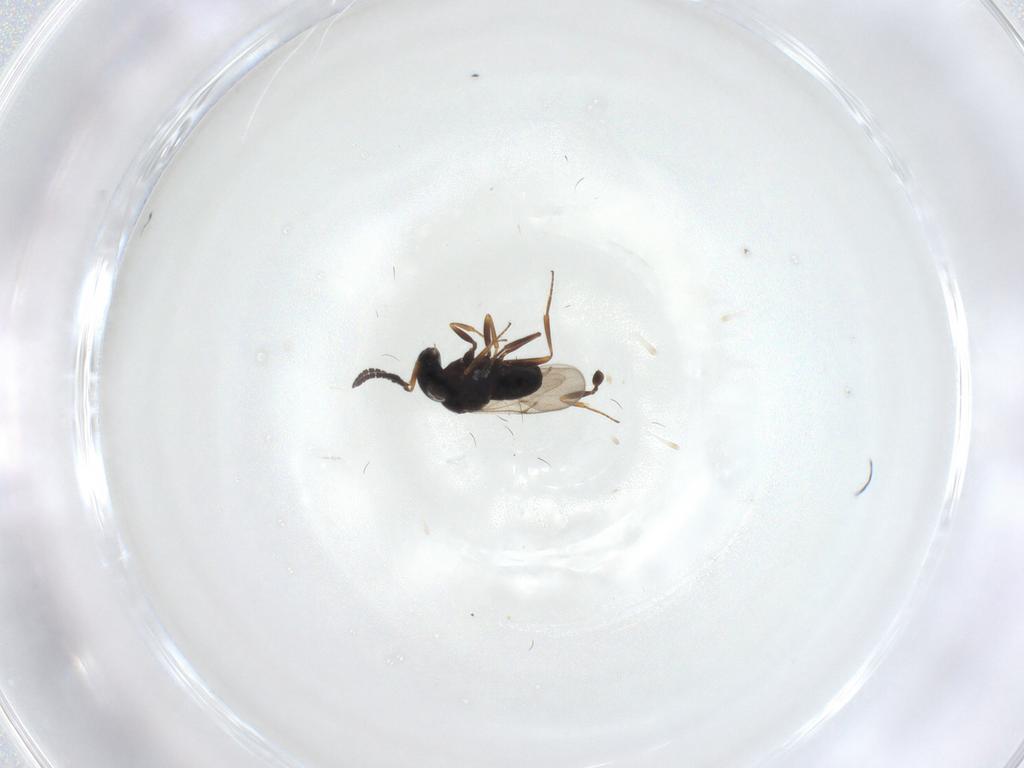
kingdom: Animalia
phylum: Arthropoda
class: Insecta
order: Hymenoptera
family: Scelionidae
